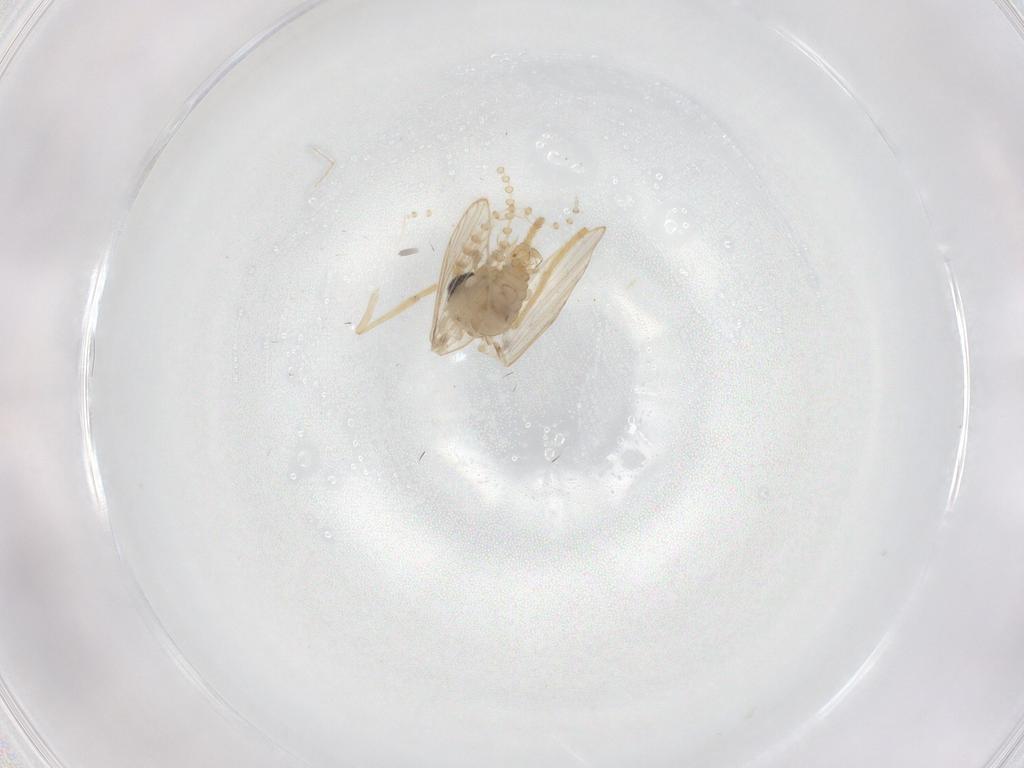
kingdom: Animalia
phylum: Arthropoda
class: Insecta
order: Diptera
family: Psychodidae
